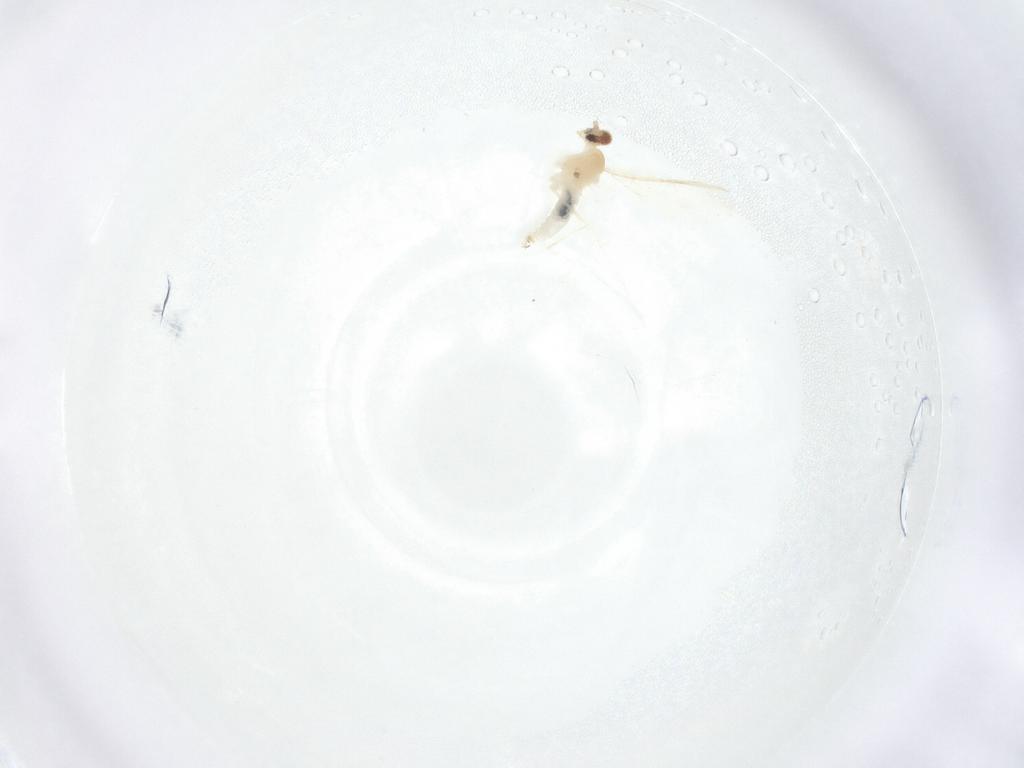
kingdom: Animalia
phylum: Arthropoda
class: Insecta
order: Diptera
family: Cecidomyiidae
